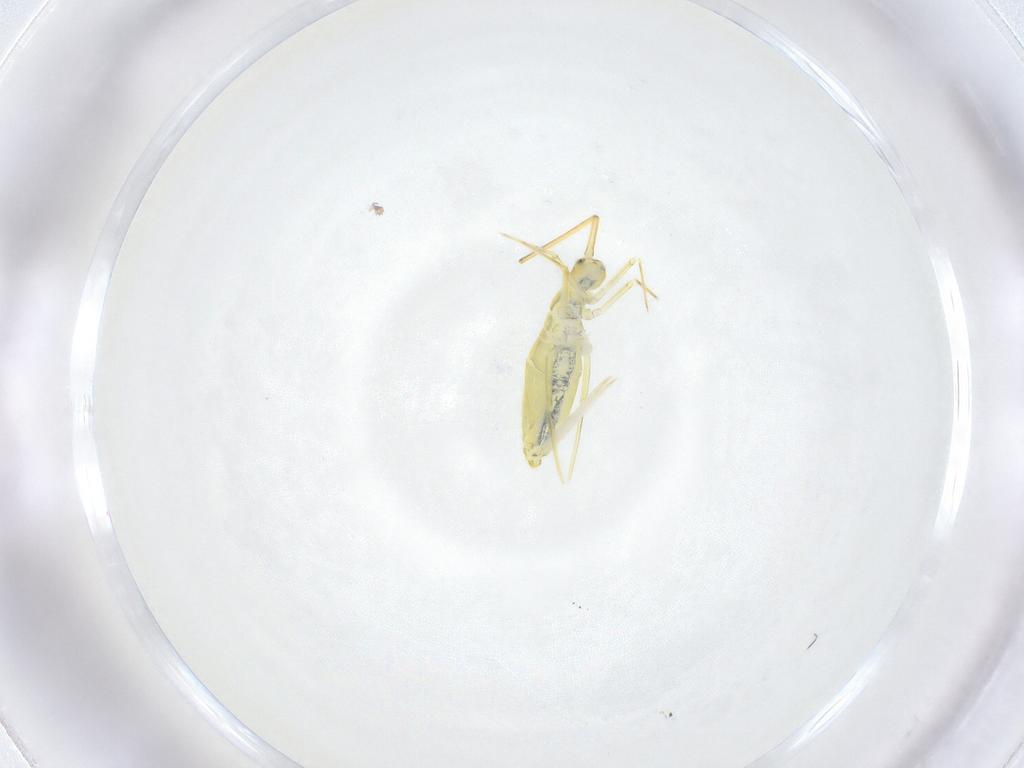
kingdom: Animalia
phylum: Arthropoda
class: Collembola
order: Entomobryomorpha
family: Paronellidae
